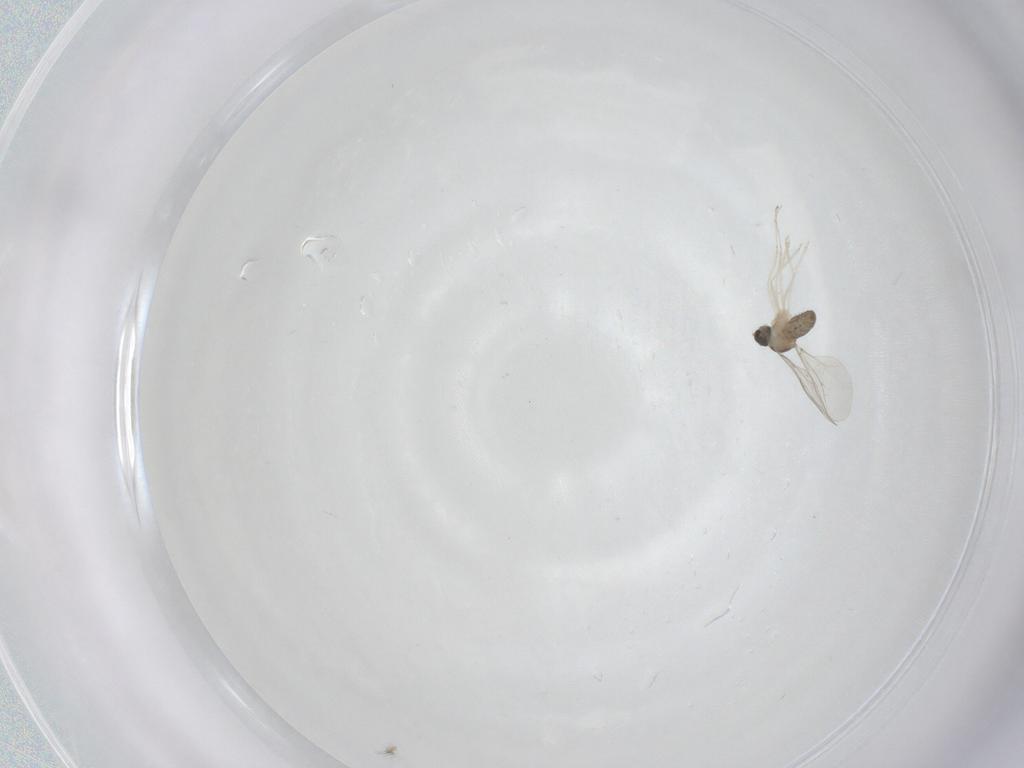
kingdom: Animalia
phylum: Arthropoda
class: Insecta
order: Diptera
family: Cecidomyiidae
